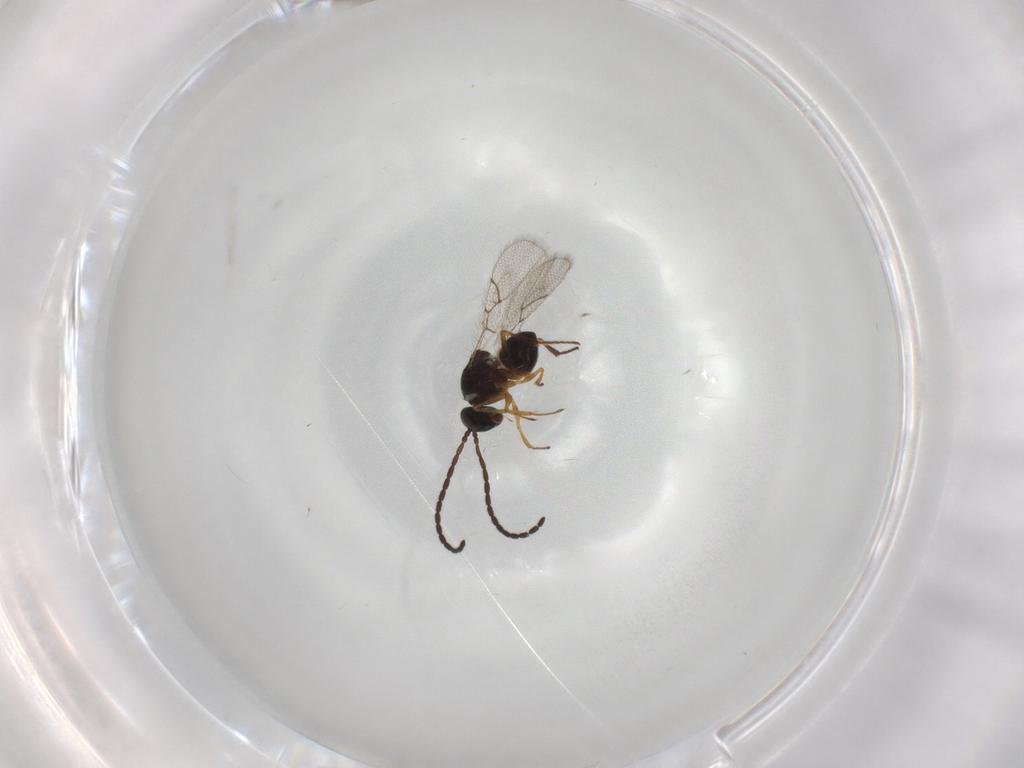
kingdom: Animalia
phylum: Arthropoda
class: Insecta
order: Hymenoptera
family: Figitidae
